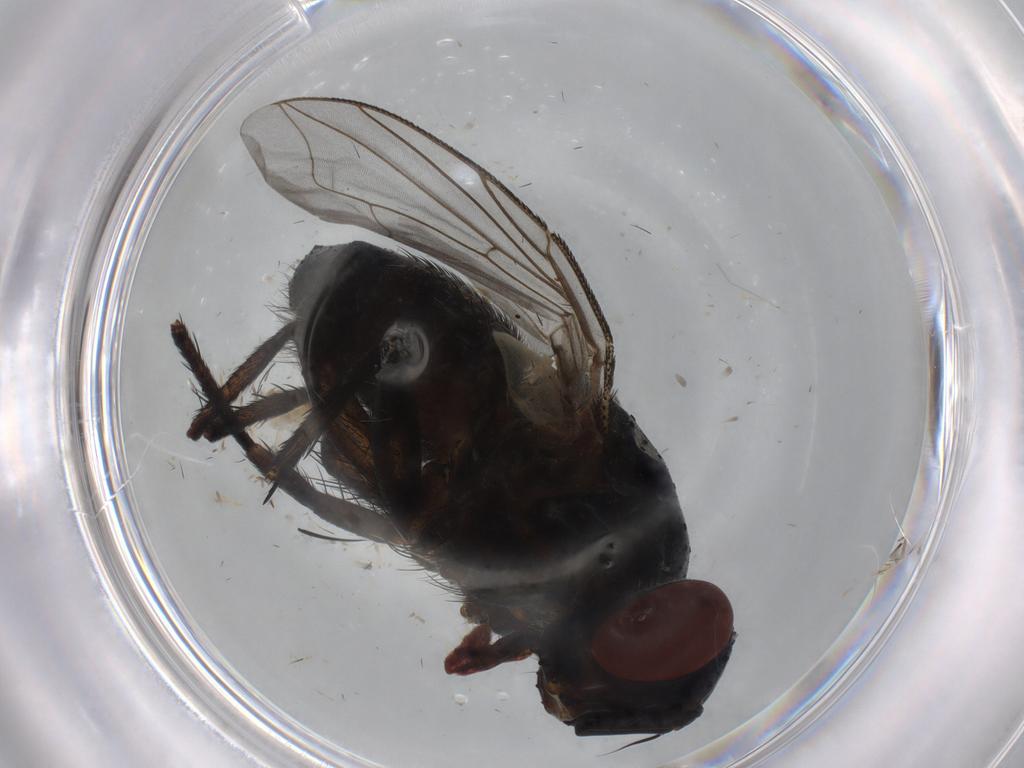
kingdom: Animalia
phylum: Arthropoda
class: Insecta
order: Diptera
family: Tachinidae
